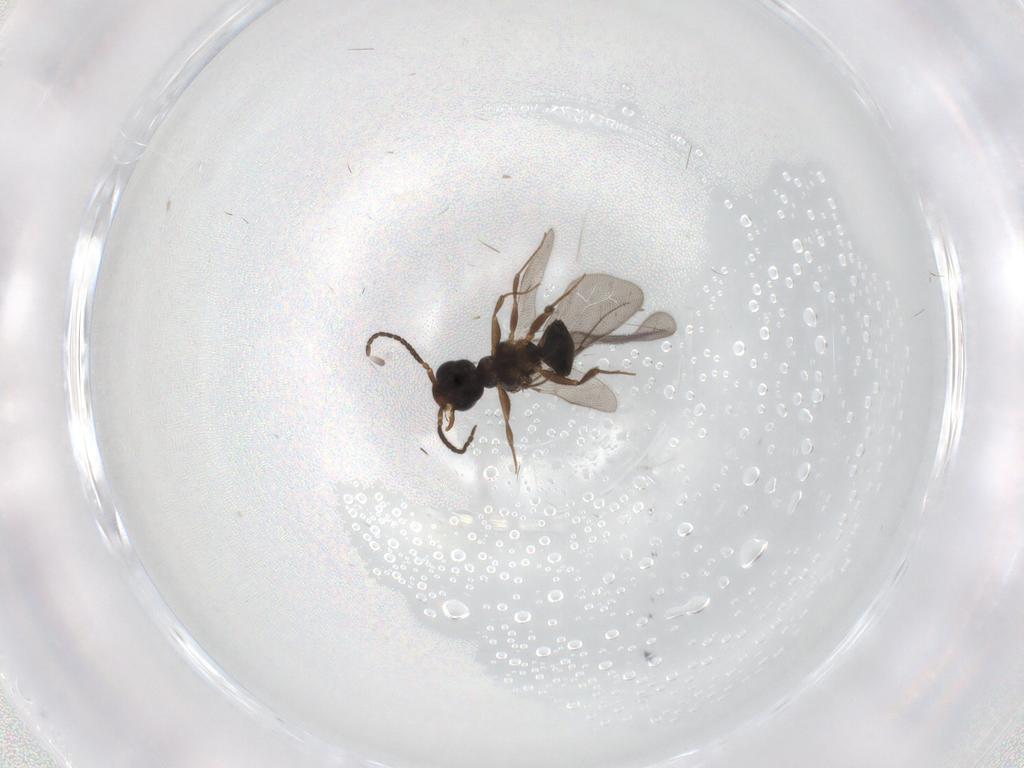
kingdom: Animalia
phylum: Arthropoda
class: Insecta
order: Hymenoptera
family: Bethylidae
